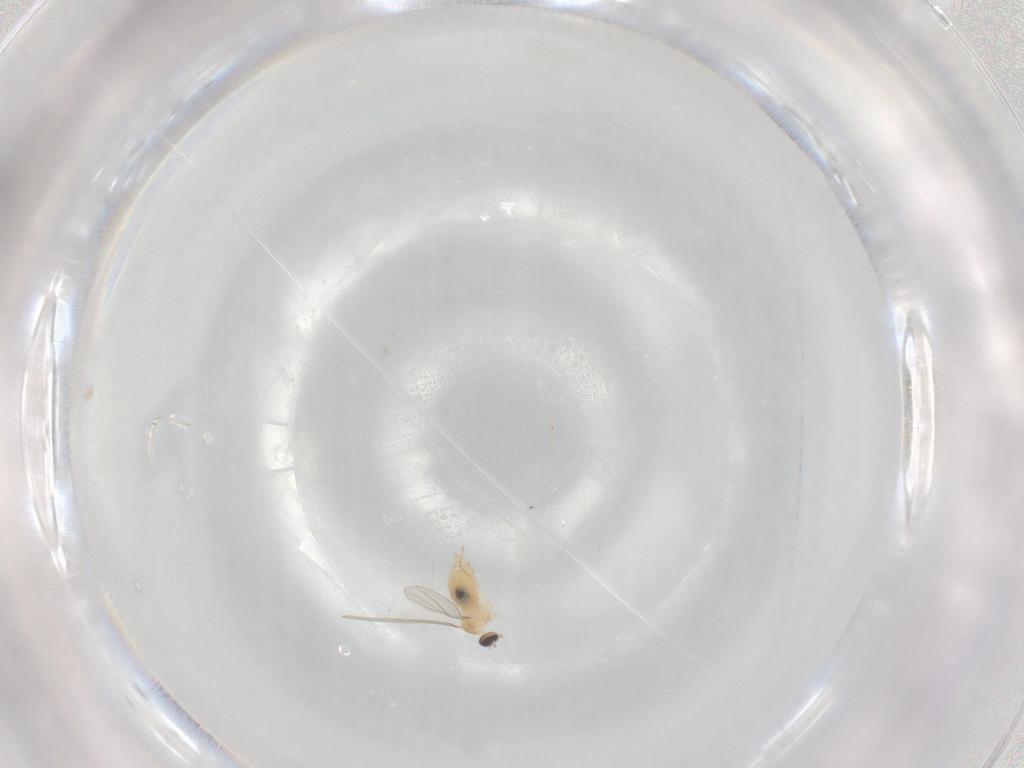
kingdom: Animalia
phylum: Arthropoda
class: Insecta
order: Diptera
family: Cecidomyiidae
